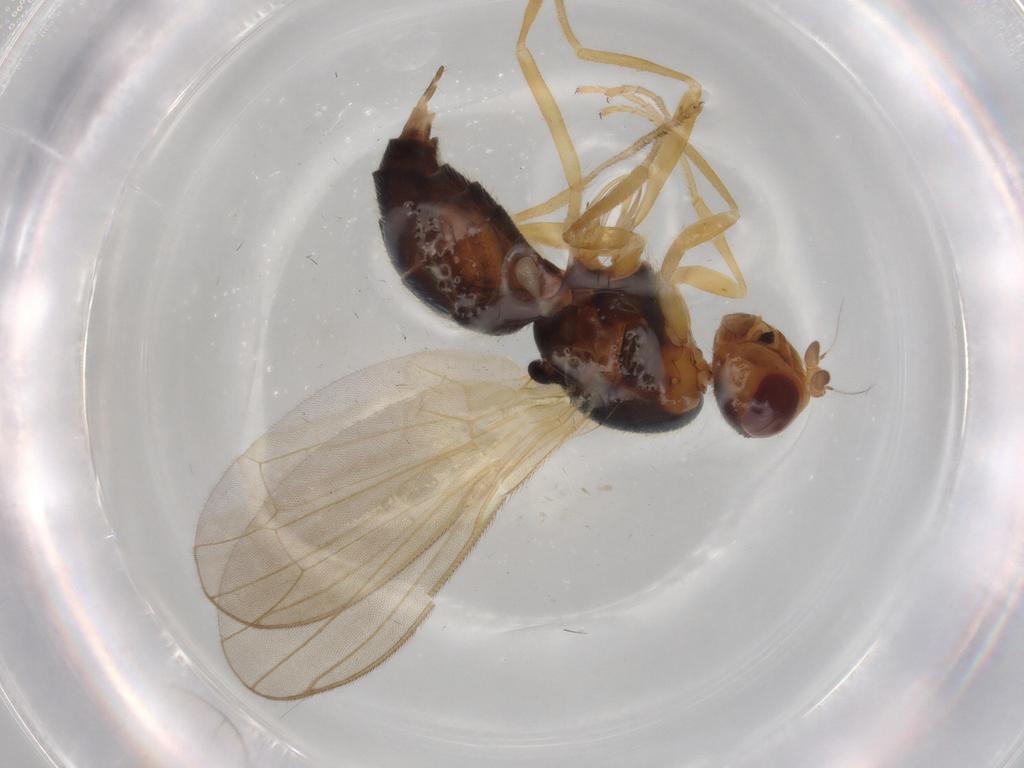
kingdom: Animalia
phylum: Arthropoda
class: Insecta
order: Diptera
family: Sphaeroceridae
